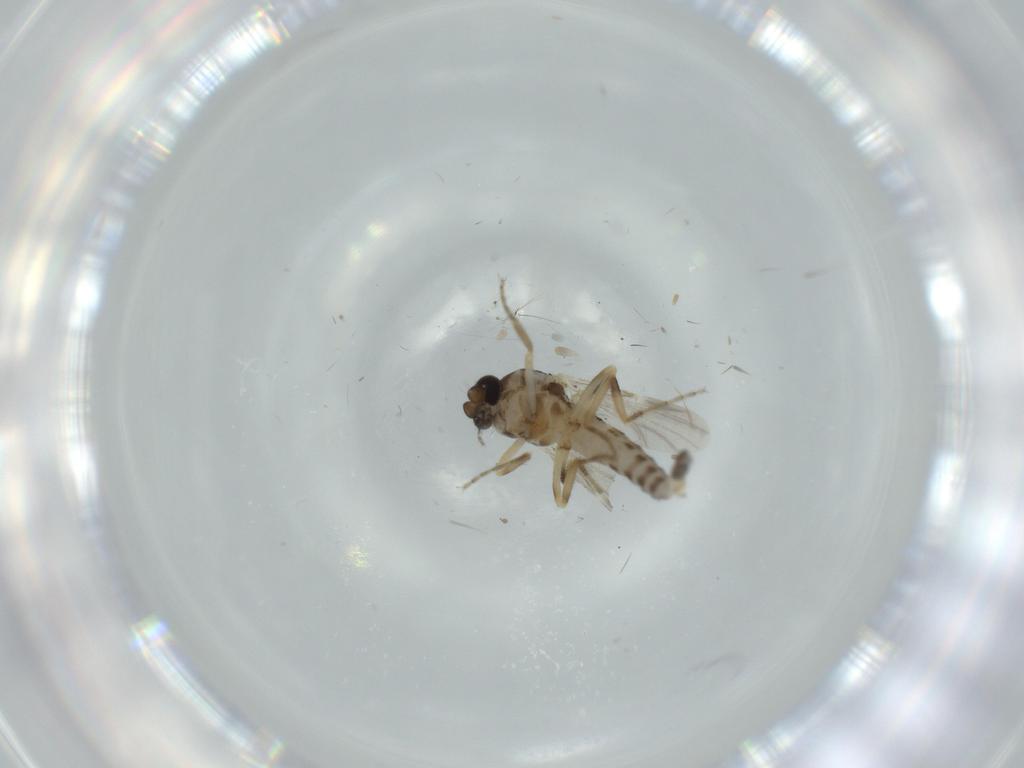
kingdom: Animalia
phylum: Arthropoda
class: Insecta
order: Diptera
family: Ceratopogonidae
